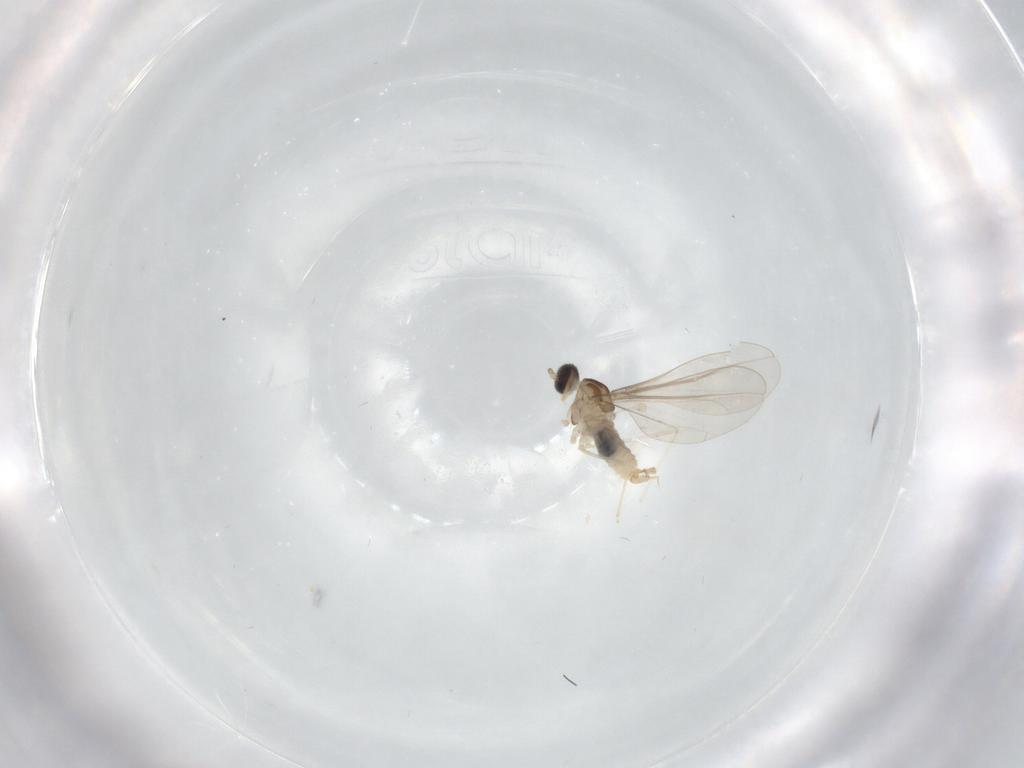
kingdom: Animalia
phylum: Arthropoda
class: Insecta
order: Diptera
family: Cecidomyiidae
